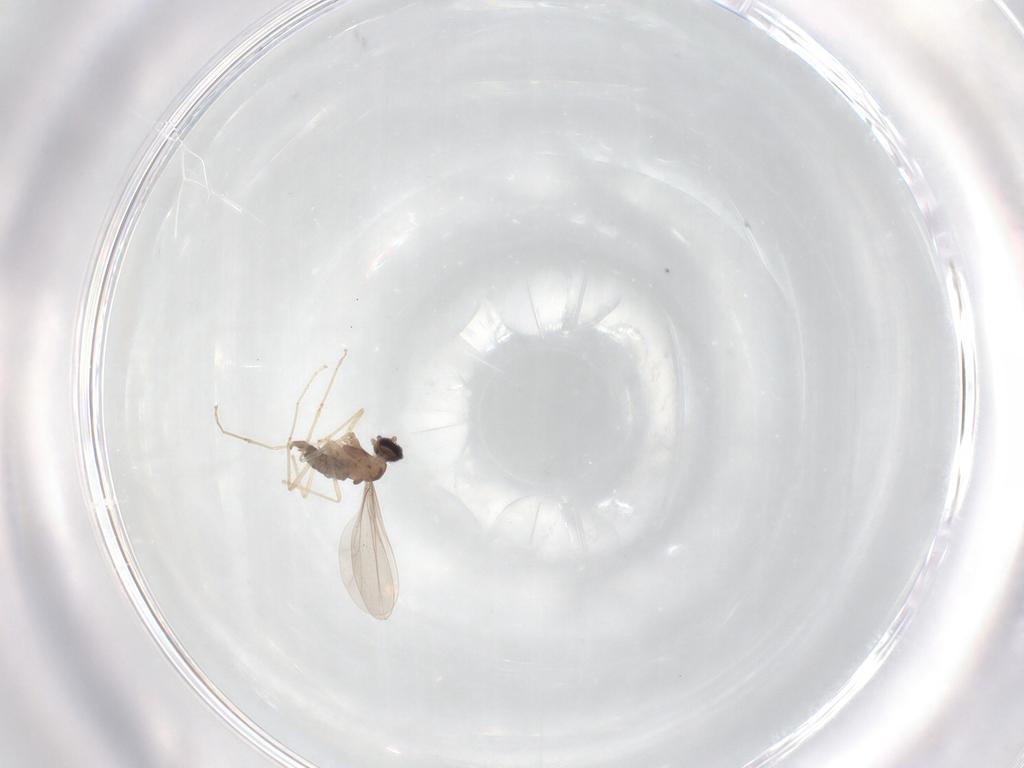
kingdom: Animalia
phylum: Arthropoda
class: Insecta
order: Diptera
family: Cecidomyiidae
